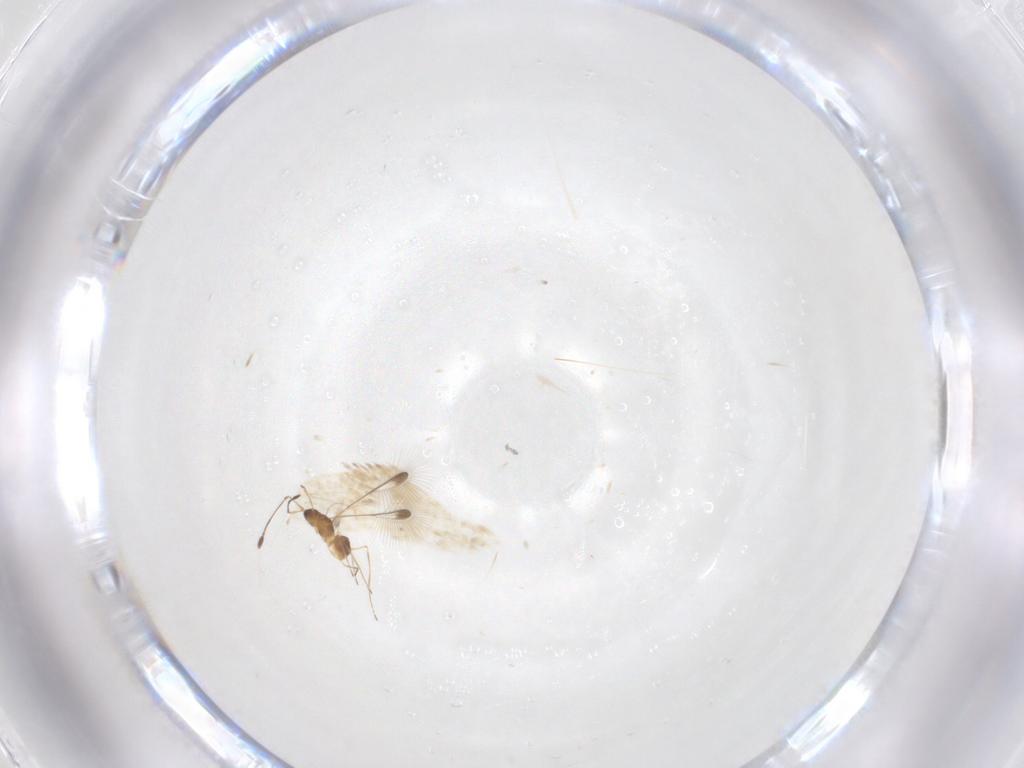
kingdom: Animalia
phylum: Arthropoda
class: Insecta
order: Hymenoptera
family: Mymaridae
